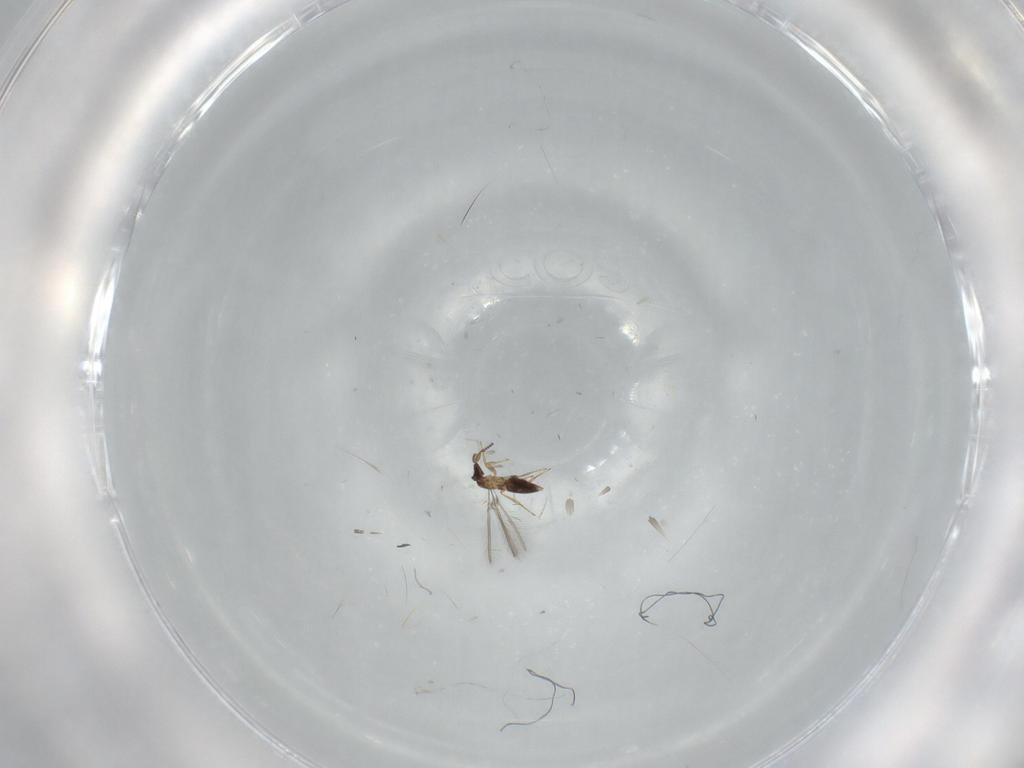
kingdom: Animalia
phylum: Arthropoda
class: Insecta
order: Hymenoptera
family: Mymaridae
